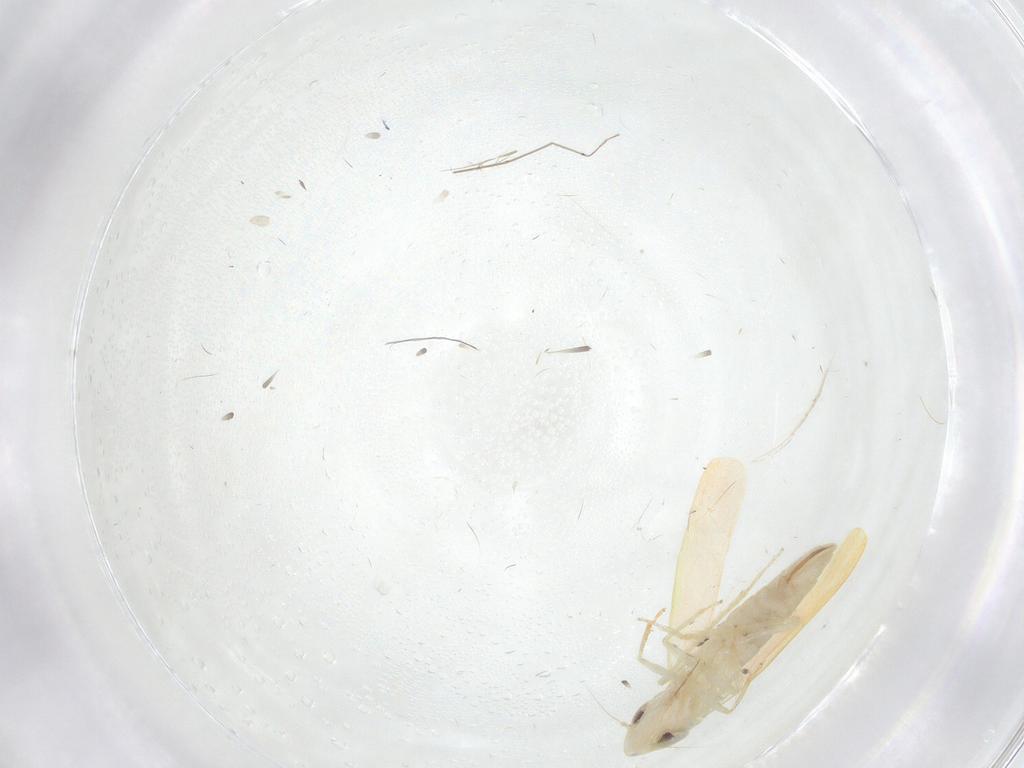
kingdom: Animalia
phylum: Arthropoda
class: Insecta
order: Hemiptera
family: Cicadellidae
